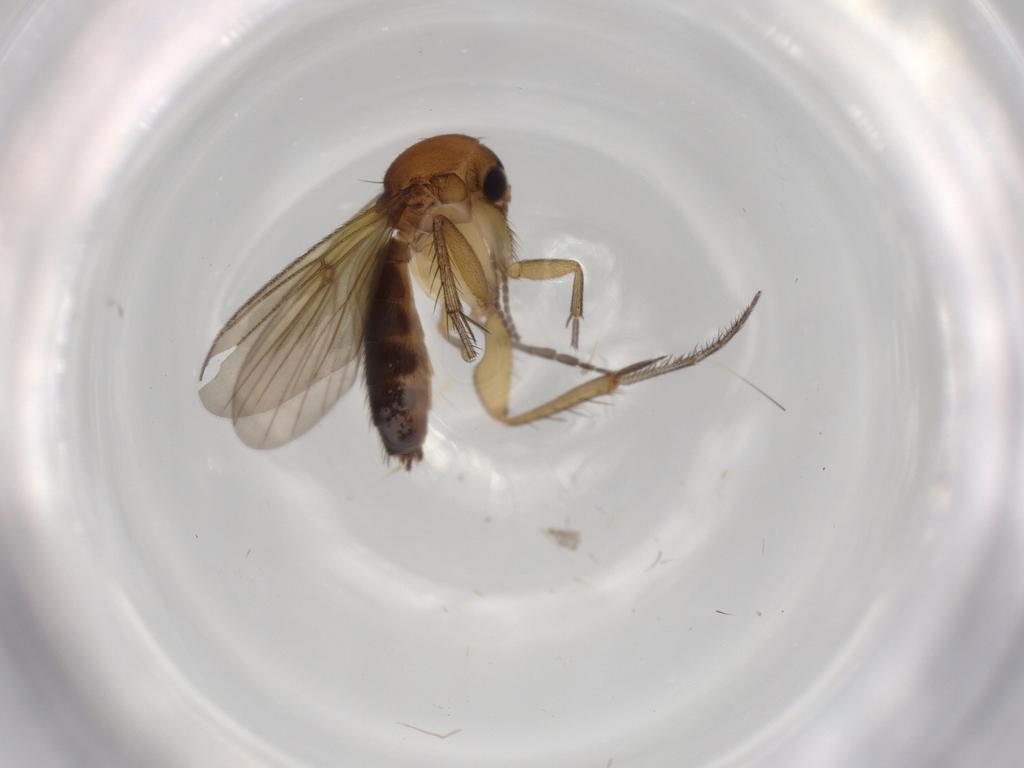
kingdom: Animalia
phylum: Arthropoda
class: Insecta
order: Diptera
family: Mycetophilidae
